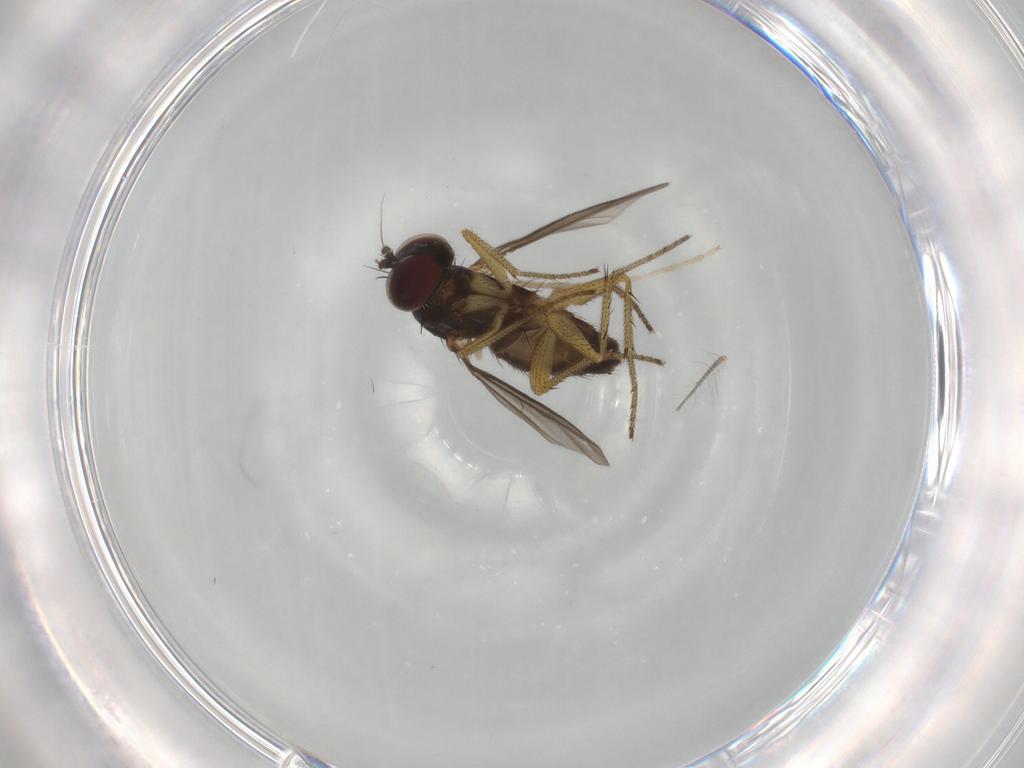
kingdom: Animalia
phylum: Arthropoda
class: Insecta
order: Diptera
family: Dolichopodidae
